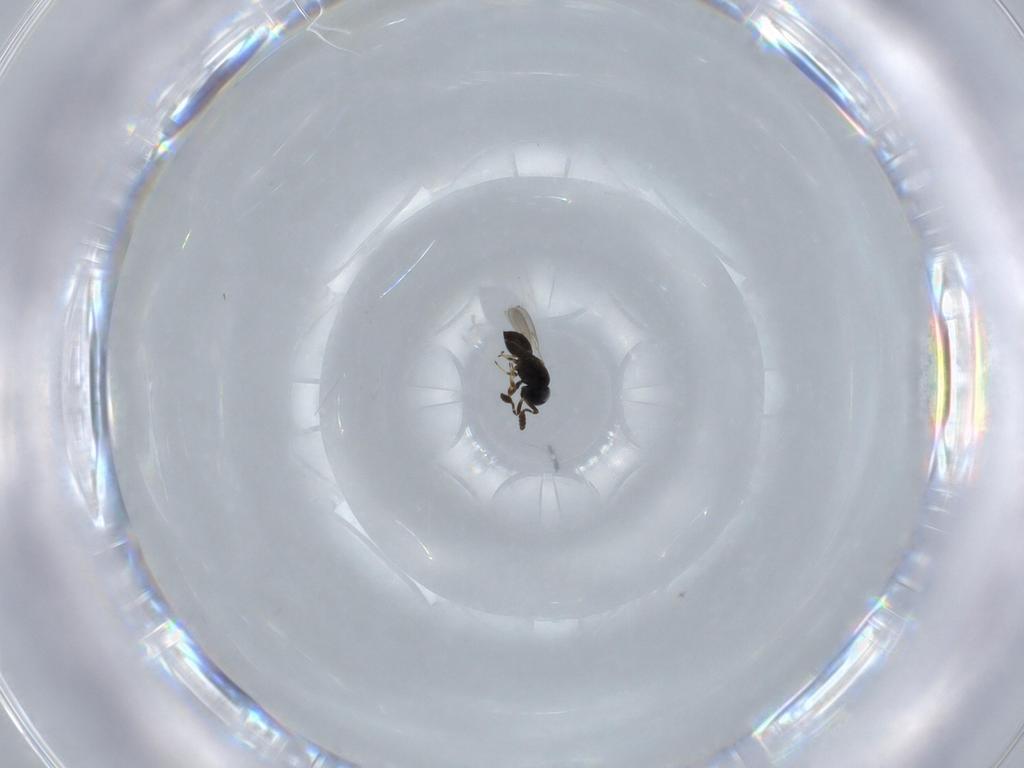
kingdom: Animalia
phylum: Arthropoda
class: Insecta
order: Hymenoptera
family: Scelionidae
